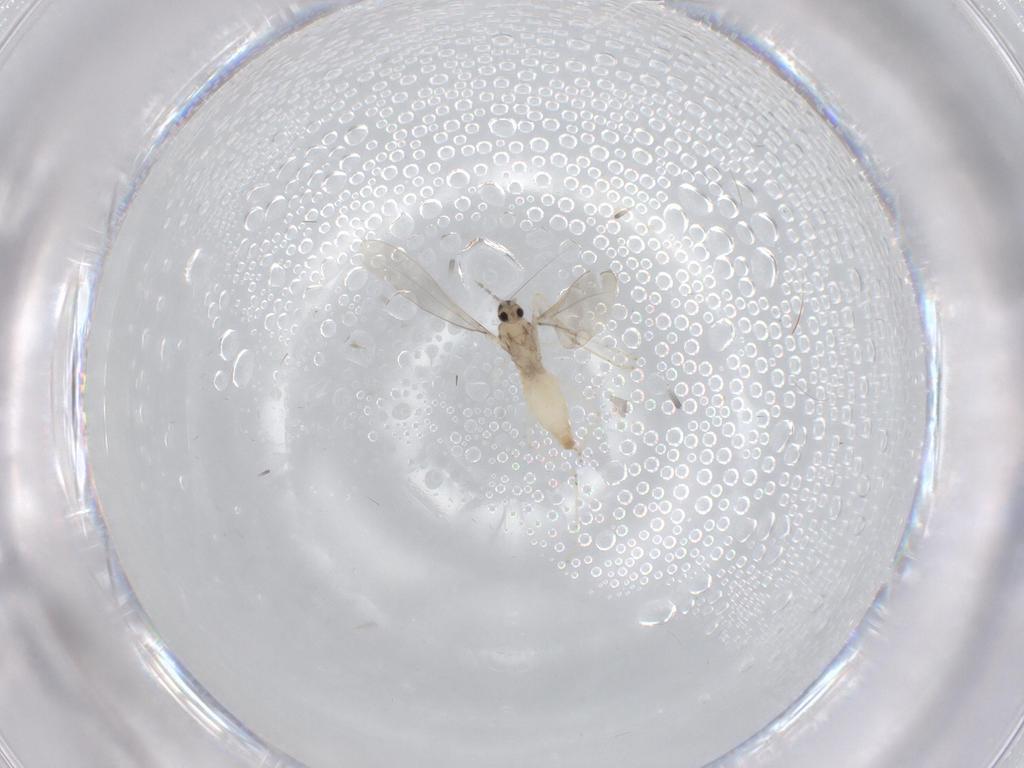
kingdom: Animalia
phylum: Arthropoda
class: Insecta
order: Diptera
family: Cecidomyiidae
